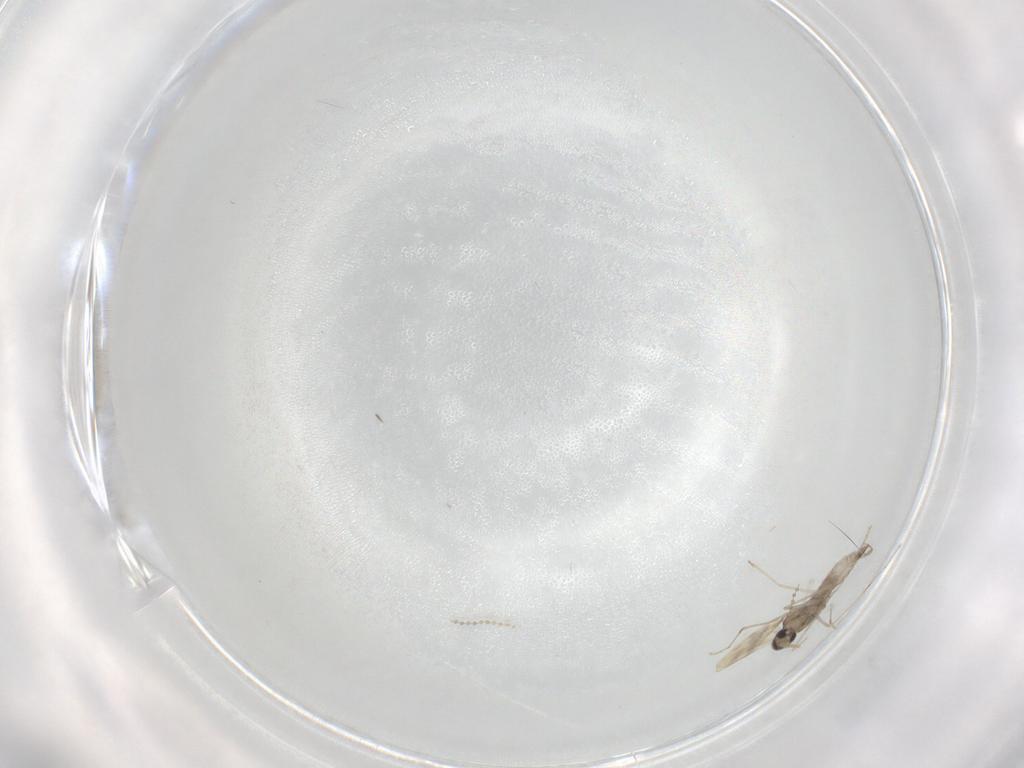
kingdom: Animalia
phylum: Arthropoda
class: Insecta
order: Diptera
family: Cecidomyiidae
